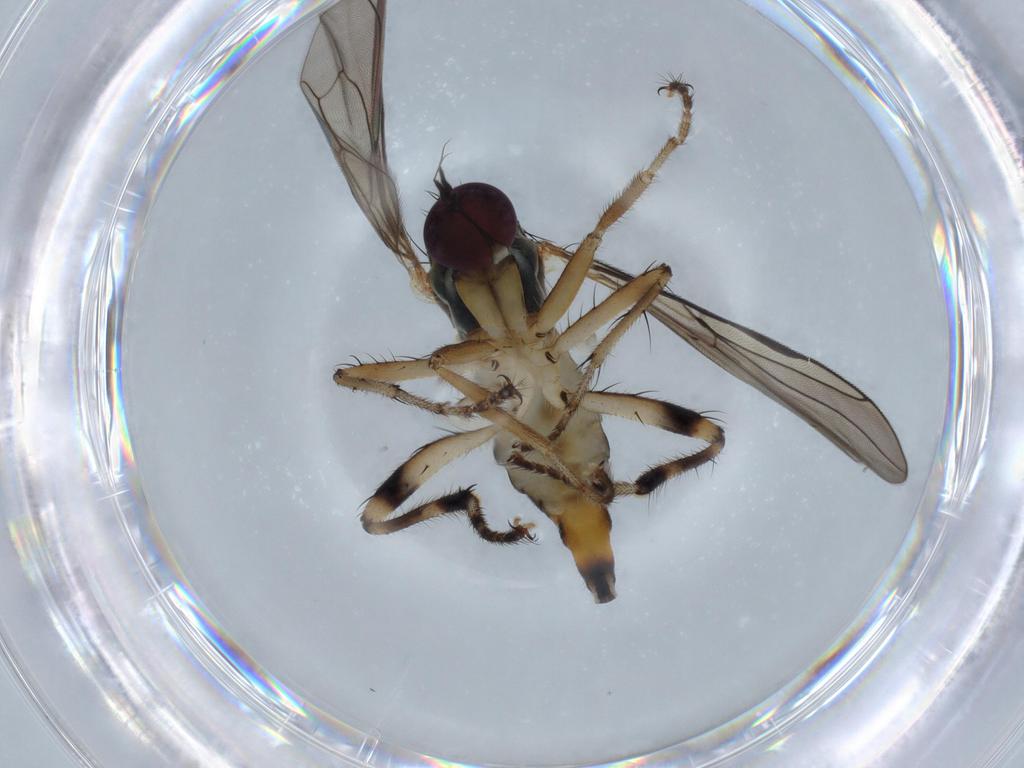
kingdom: Animalia
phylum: Arthropoda
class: Insecta
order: Diptera
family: Hybotidae
